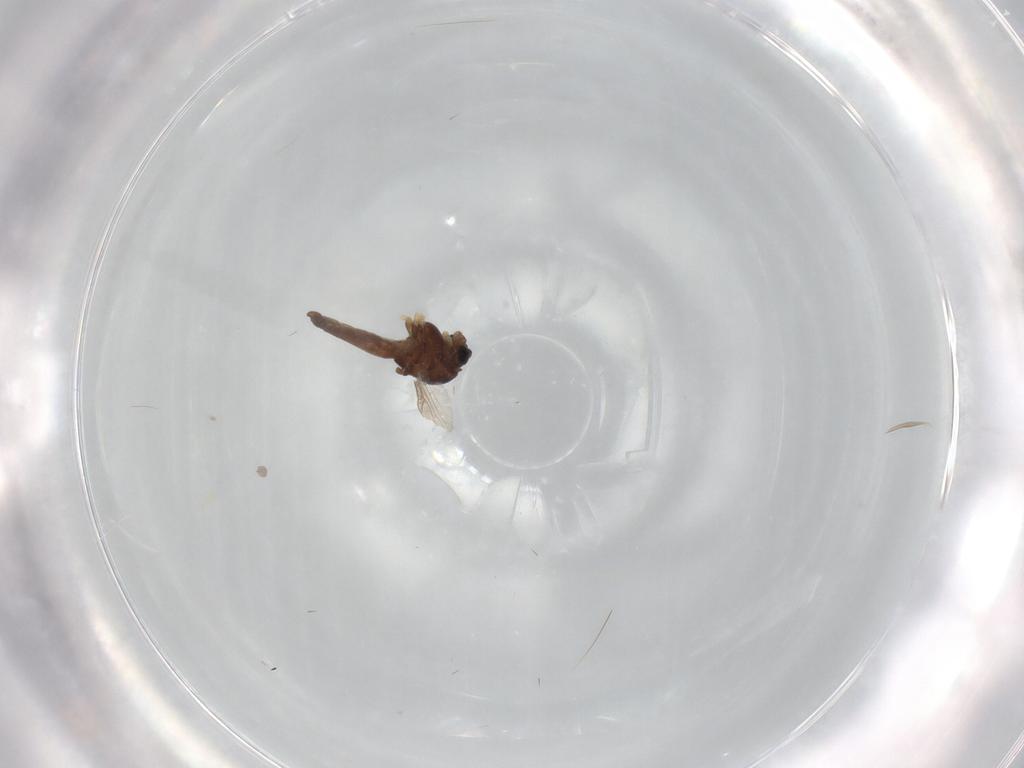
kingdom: Animalia
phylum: Arthropoda
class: Insecta
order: Diptera
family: Chironomidae
